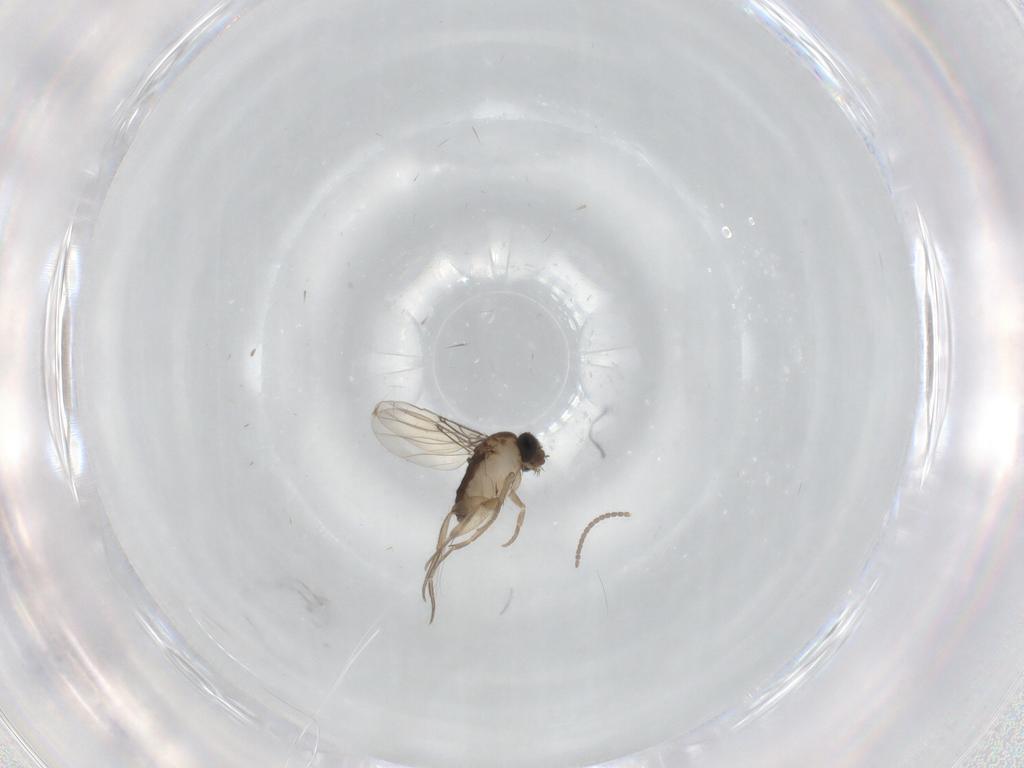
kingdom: Animalia
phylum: Arthropoda
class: Insecta
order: Diptera
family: Phoridae
